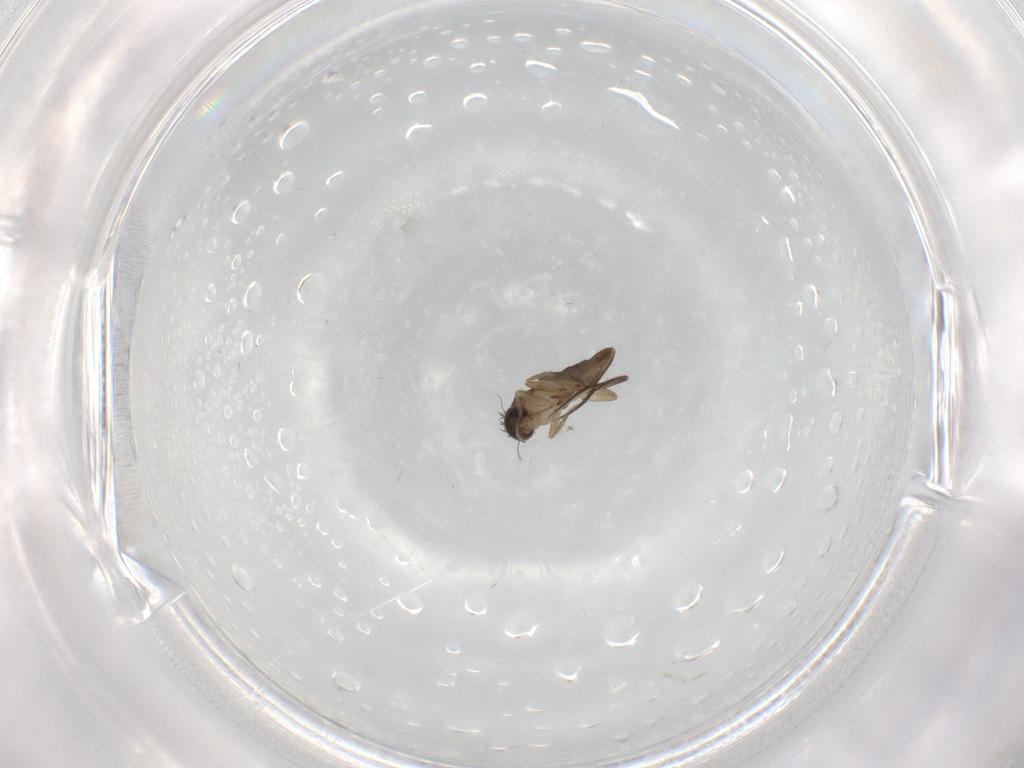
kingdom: Animalia
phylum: Arthropoda
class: Insecta
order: Diptera
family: Phoridae
